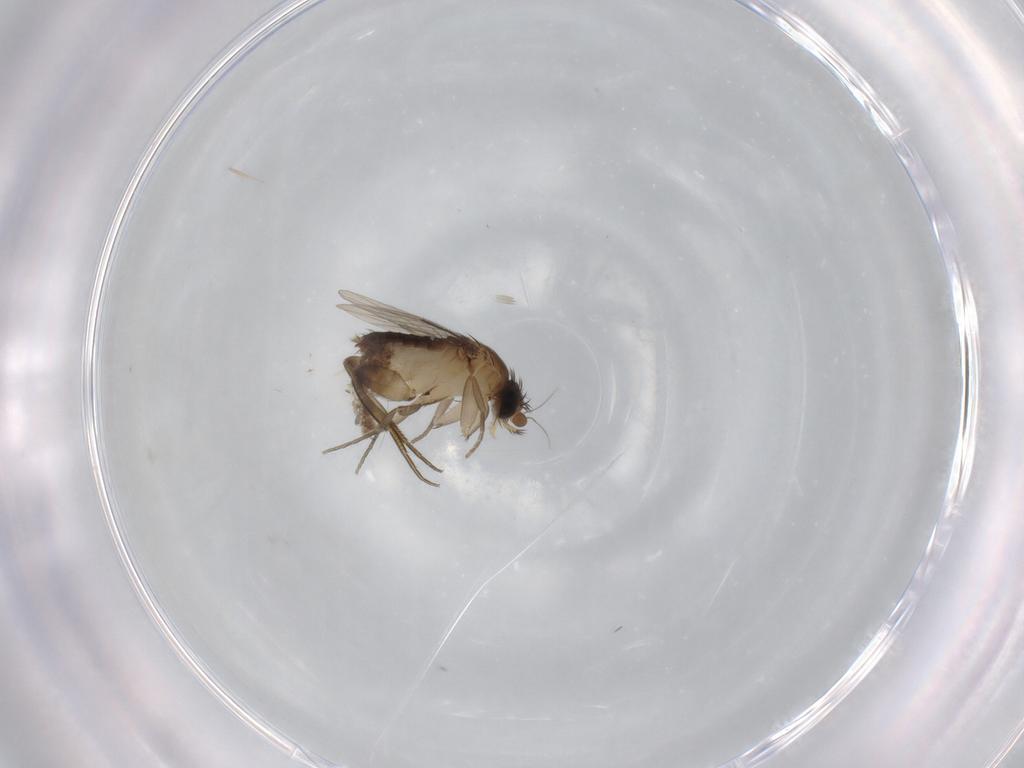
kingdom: Animalia
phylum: Arthropoda
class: Insecta
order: Diptera
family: Phoridae
